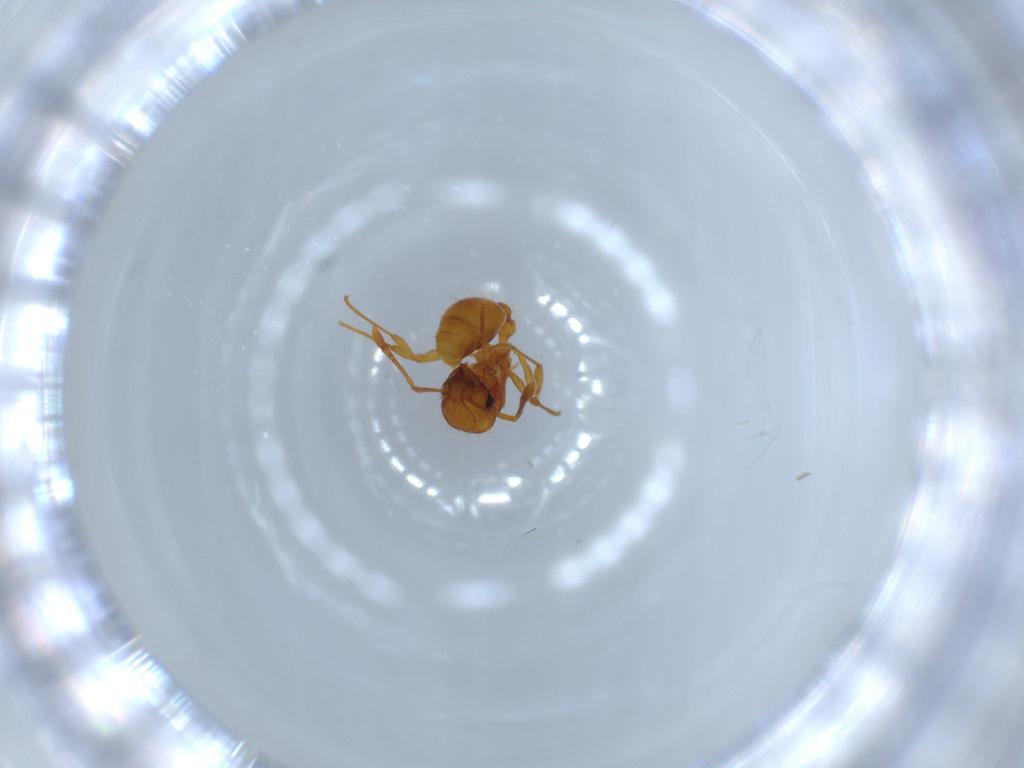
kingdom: Animalia
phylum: Arthropoda
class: Insecta
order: Hymenoptera
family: Formicidae
